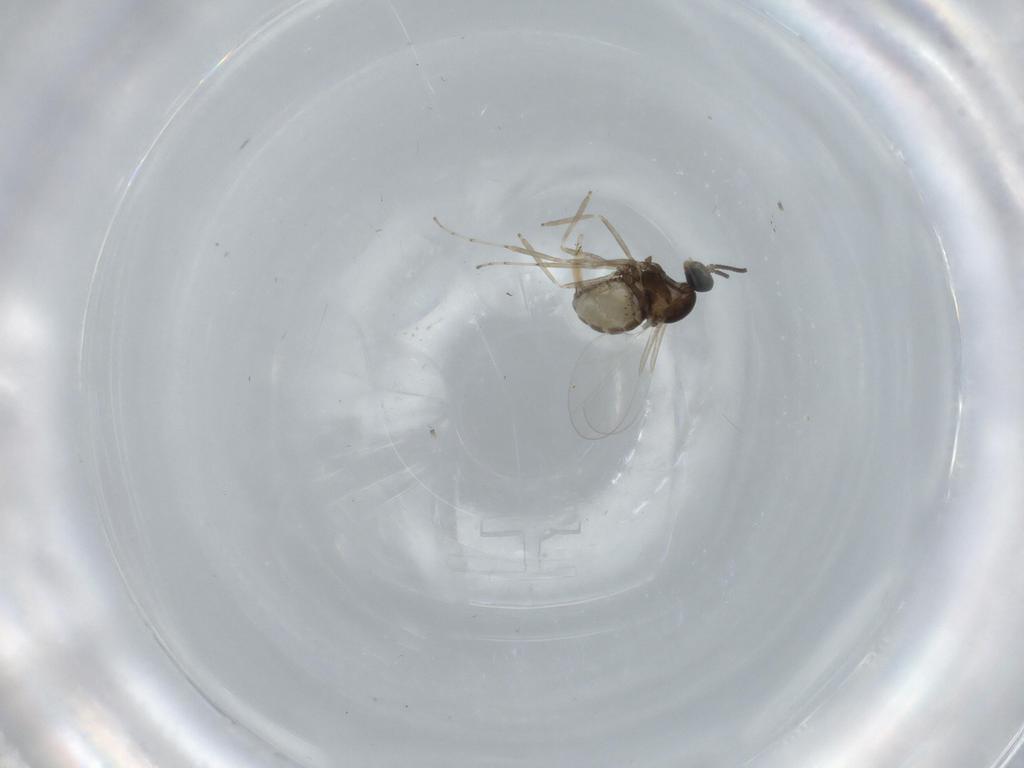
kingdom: Animalia
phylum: Arthropoda
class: Insecta
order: Diptera
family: Cecidomyiidae
